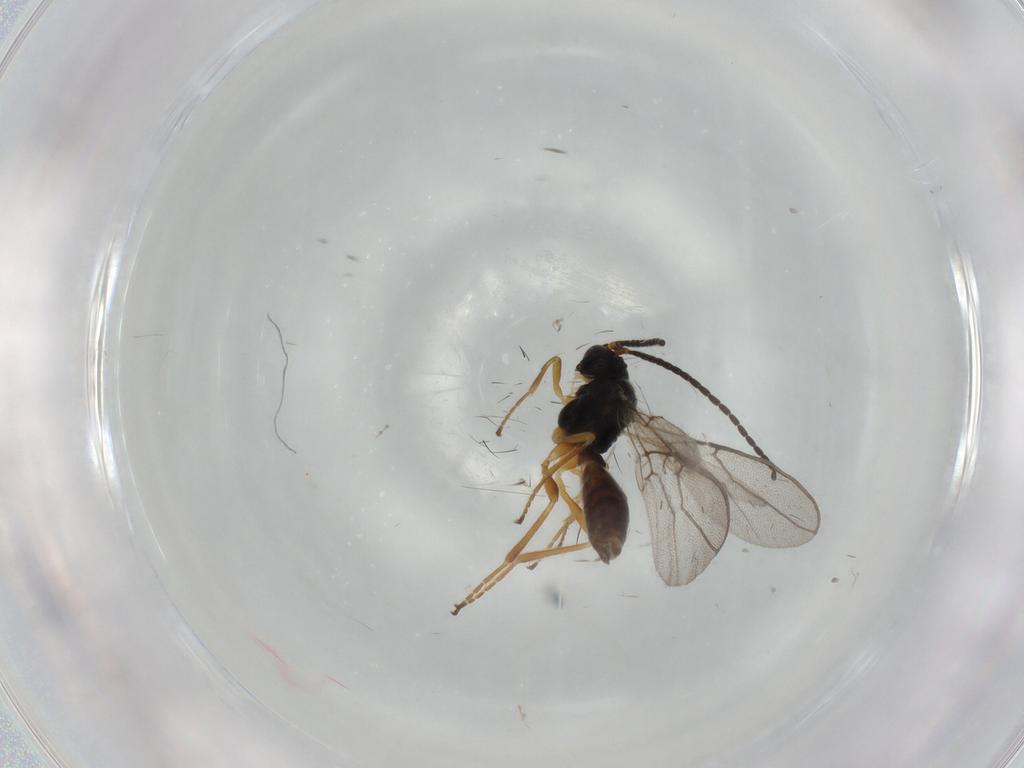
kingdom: Animalia
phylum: Arthropoda
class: Insecta
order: Hymenoptera
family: Braconidae
